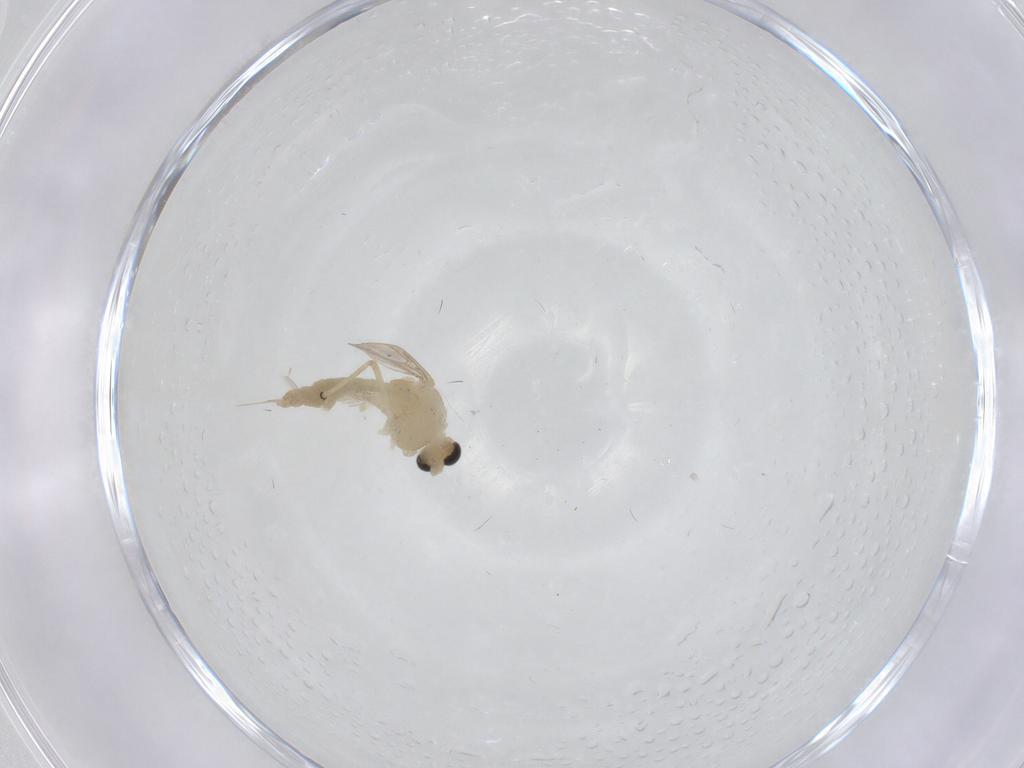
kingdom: Animalia
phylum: Arthropoda
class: Insecta
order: Diptera
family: Chironomidae
